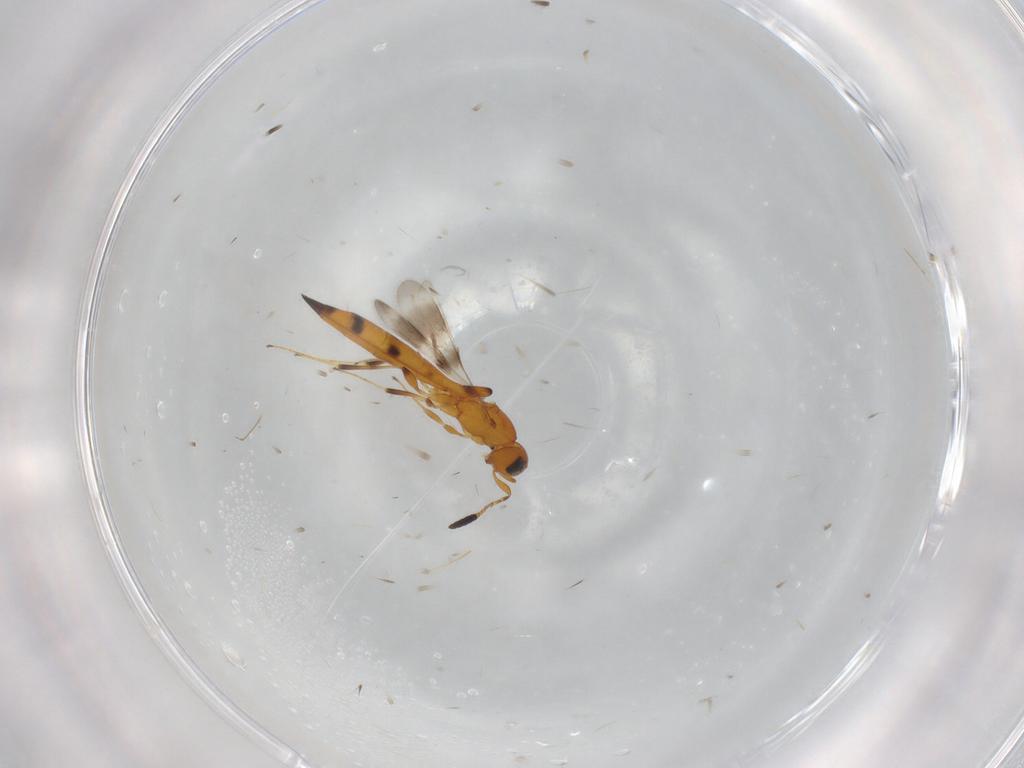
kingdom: Animalia
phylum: Arthropoda
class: Insecta
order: Hymenoptera
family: Scelionidae
